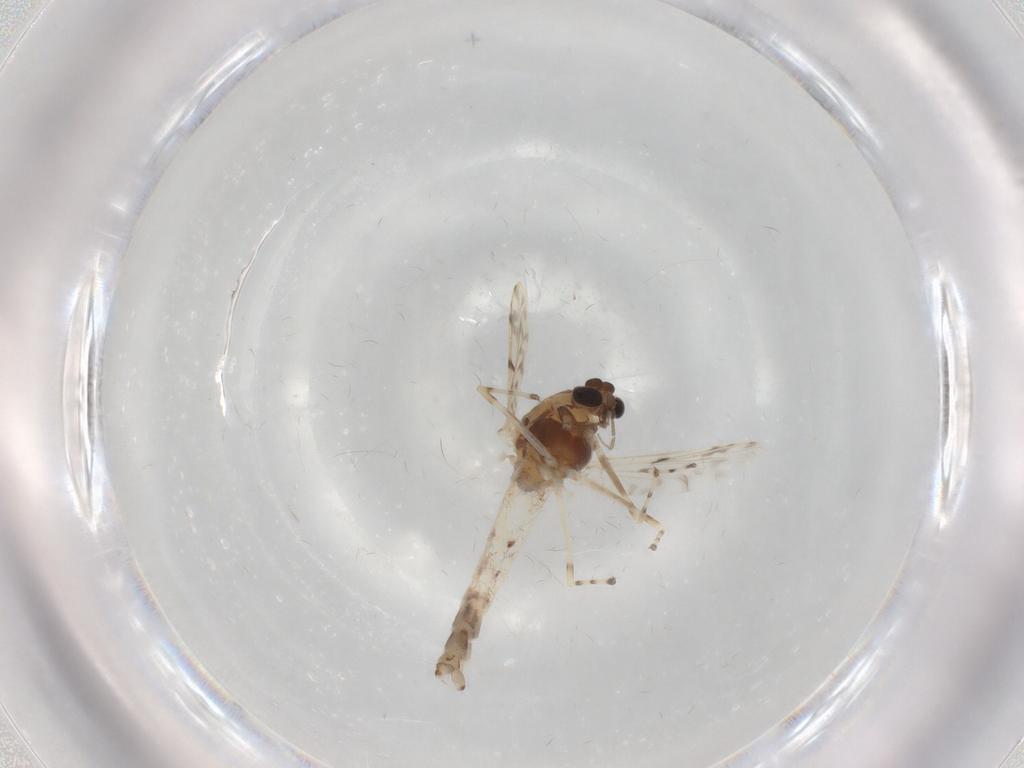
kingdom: Animalia
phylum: Arthropoda
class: Insecta
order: Diptera
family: Chironomidae
